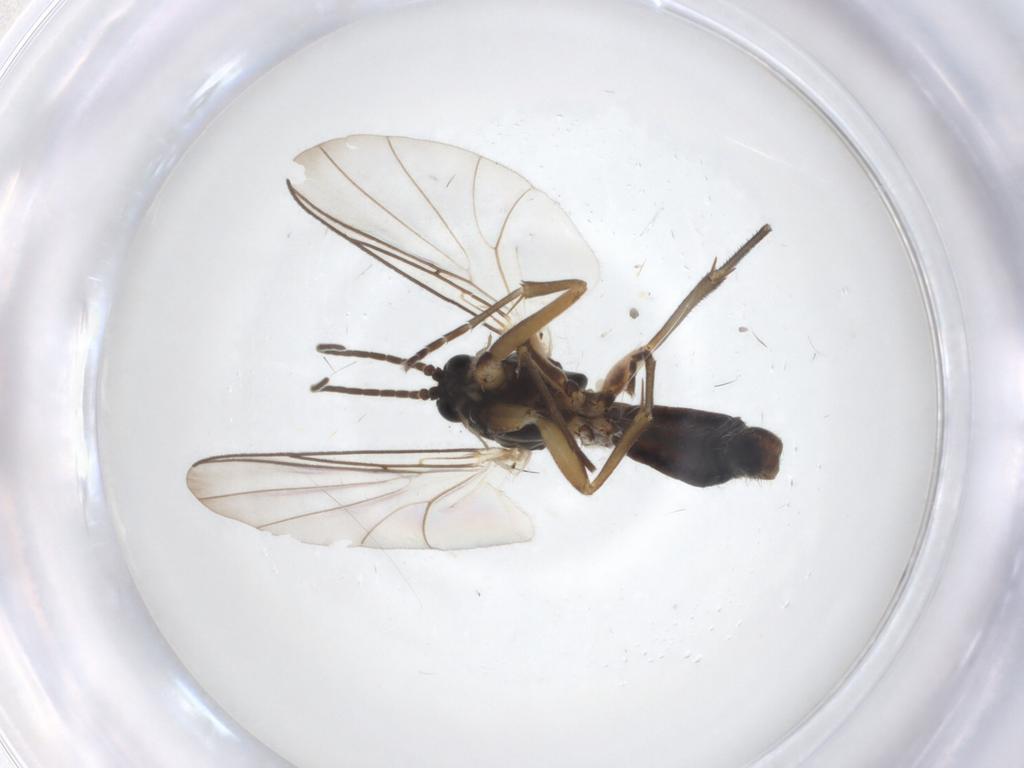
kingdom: Animalia
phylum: Arthropoda
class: Insecta
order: Diptera
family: Mycetophilidae
